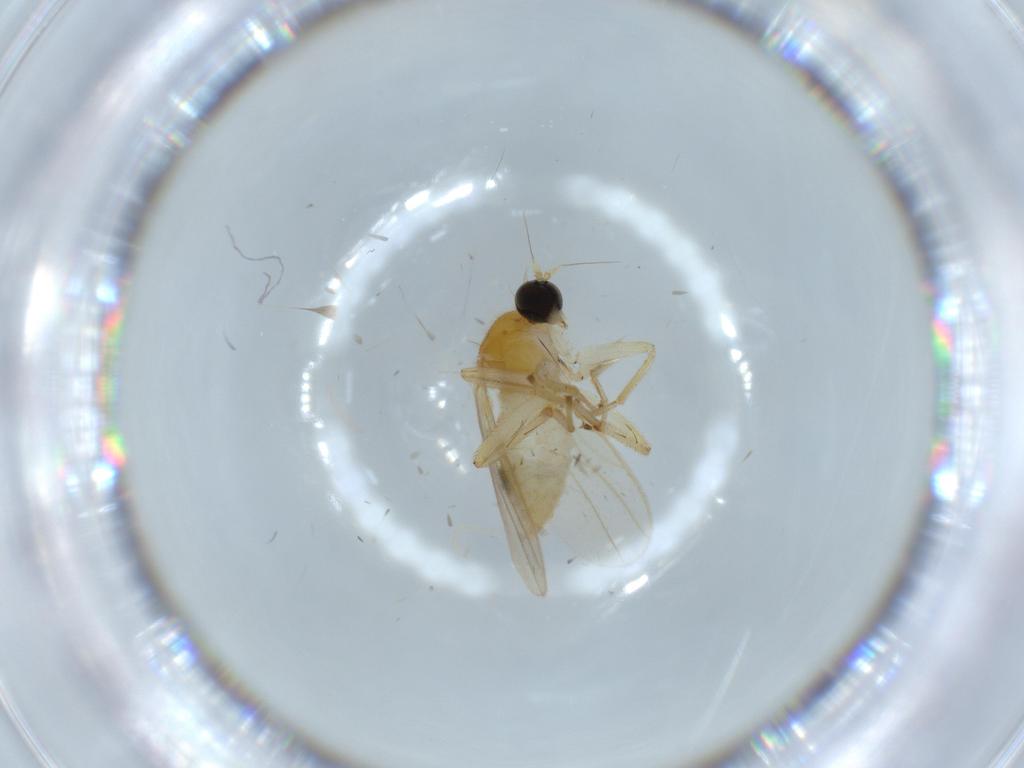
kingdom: Animalia
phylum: Arthropoda
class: Insecta
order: Diptera
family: Hybotidae
